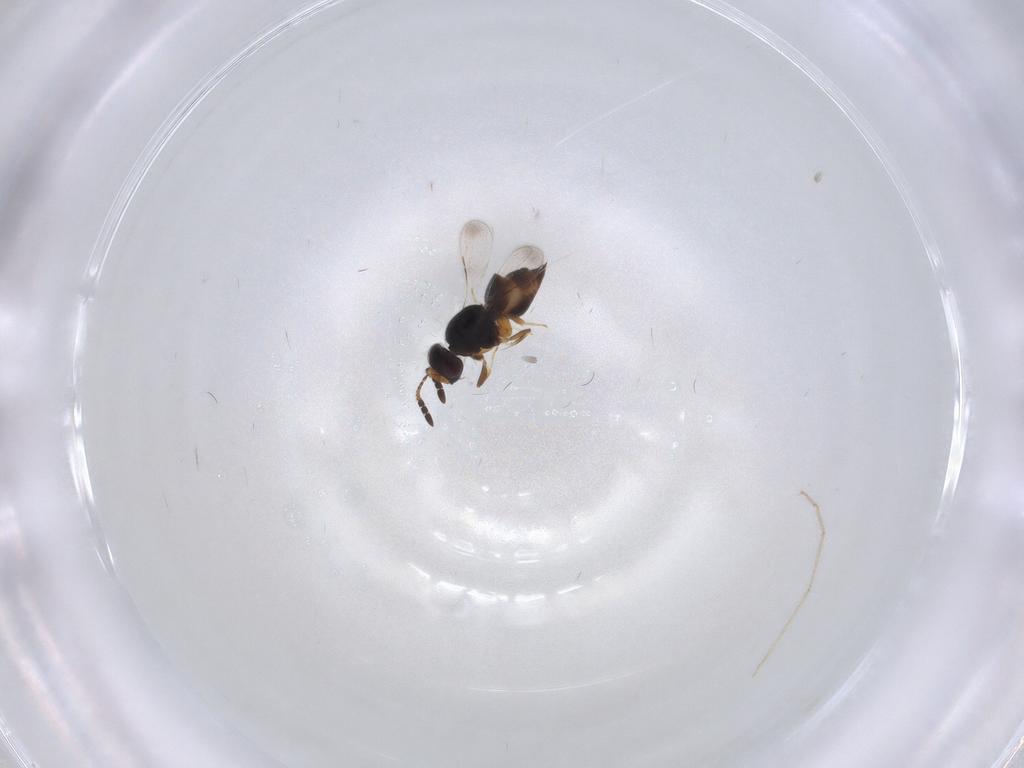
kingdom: Animalia
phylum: Arthropoda
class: Insecta
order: Hymenoptera
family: Ceraphronidae
